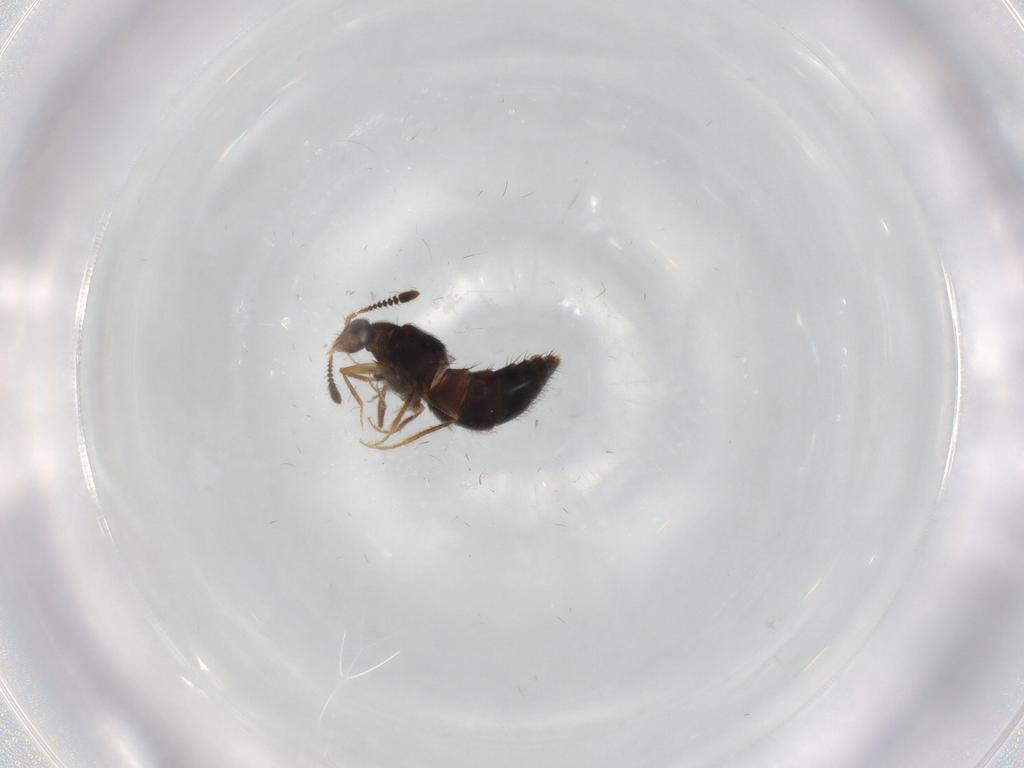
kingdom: Animalia
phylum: Arthropoda
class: Insecta
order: Coleoptera
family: Staphylinidae
